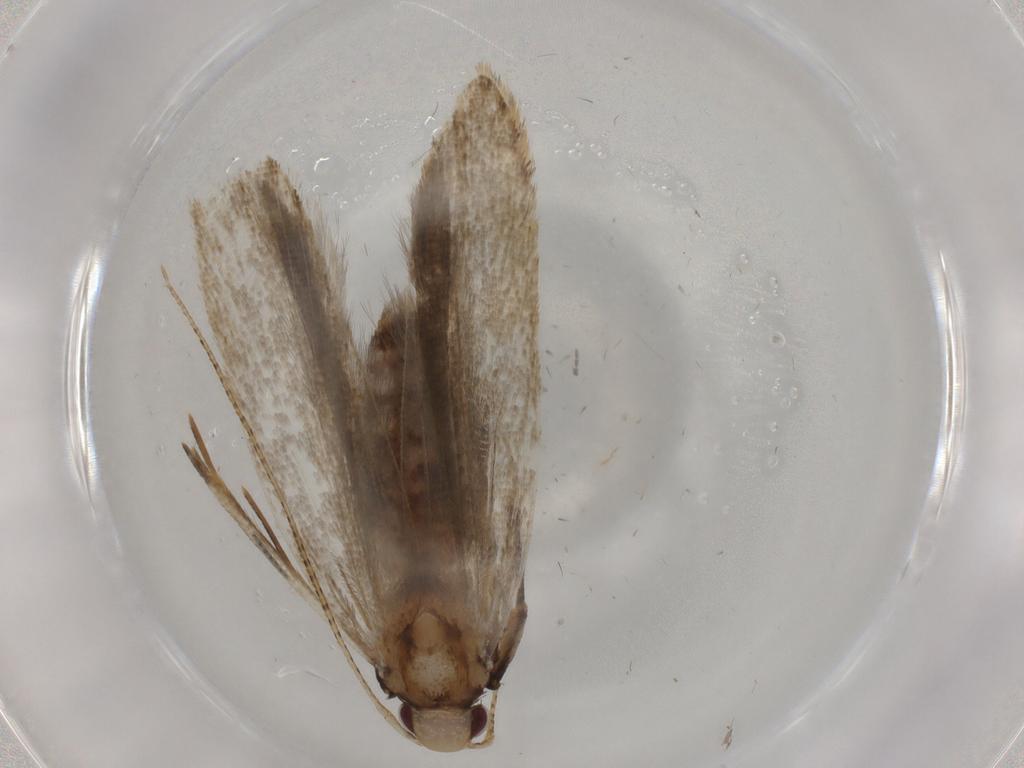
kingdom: Animalia
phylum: Arthropoda
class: Insecta
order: Lepidoptera
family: Gelechiidae
